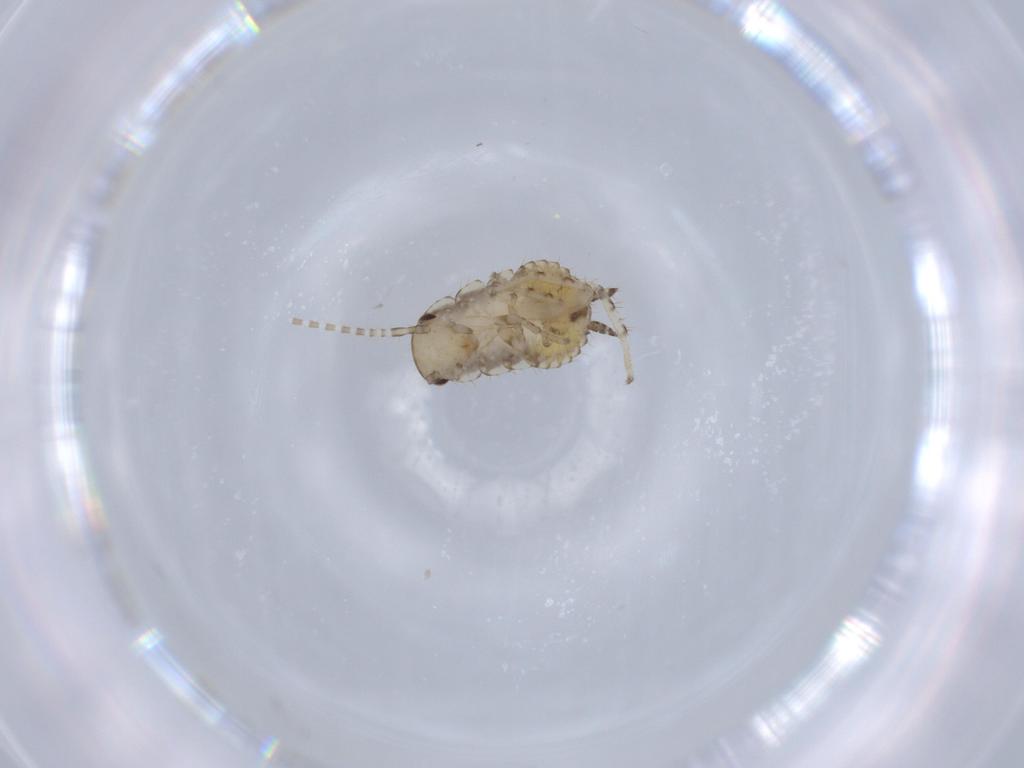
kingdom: Animalia
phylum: Arthropoda
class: Insecta
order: Blattodea
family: Ectobiidae
